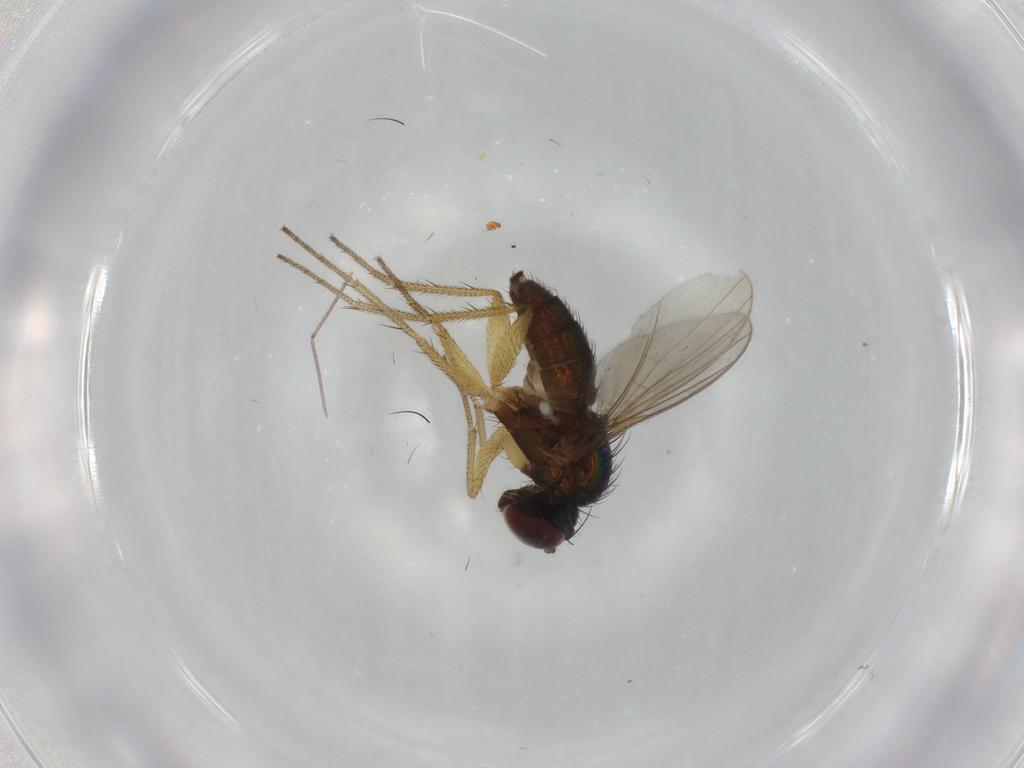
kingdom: Animalia
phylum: Arthropoda
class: Insecta
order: Diptera
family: Dolichopodidae
